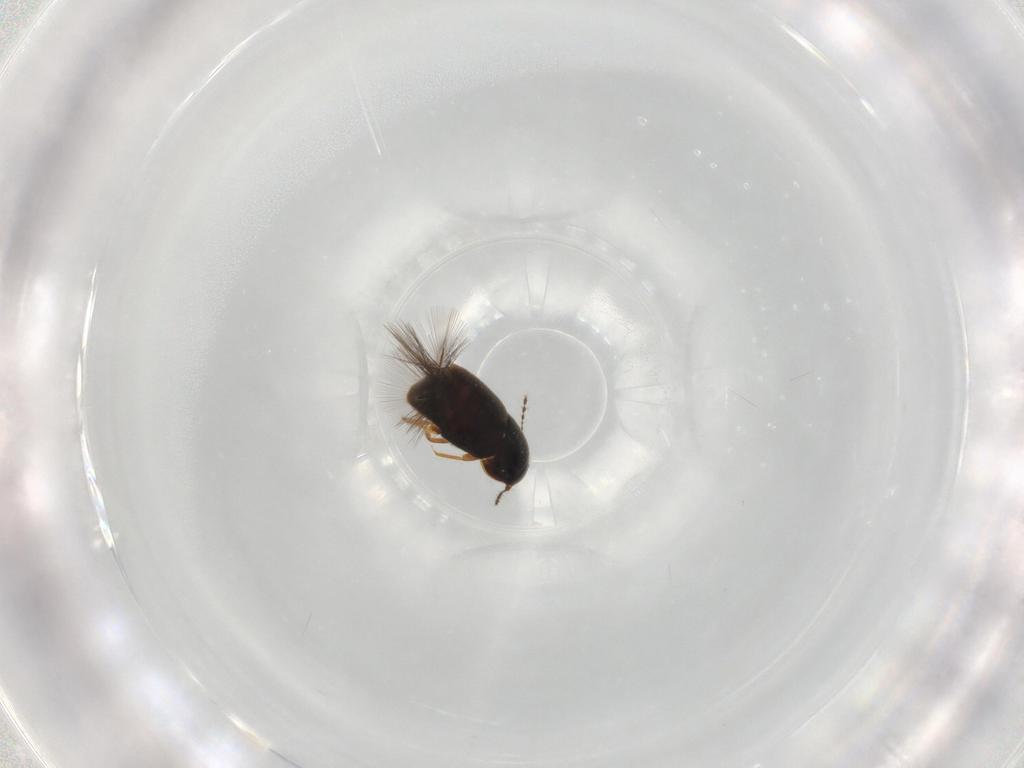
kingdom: Animalia
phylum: Arthropoda
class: Insecta
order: Coleoptera
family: Ptiliidae
